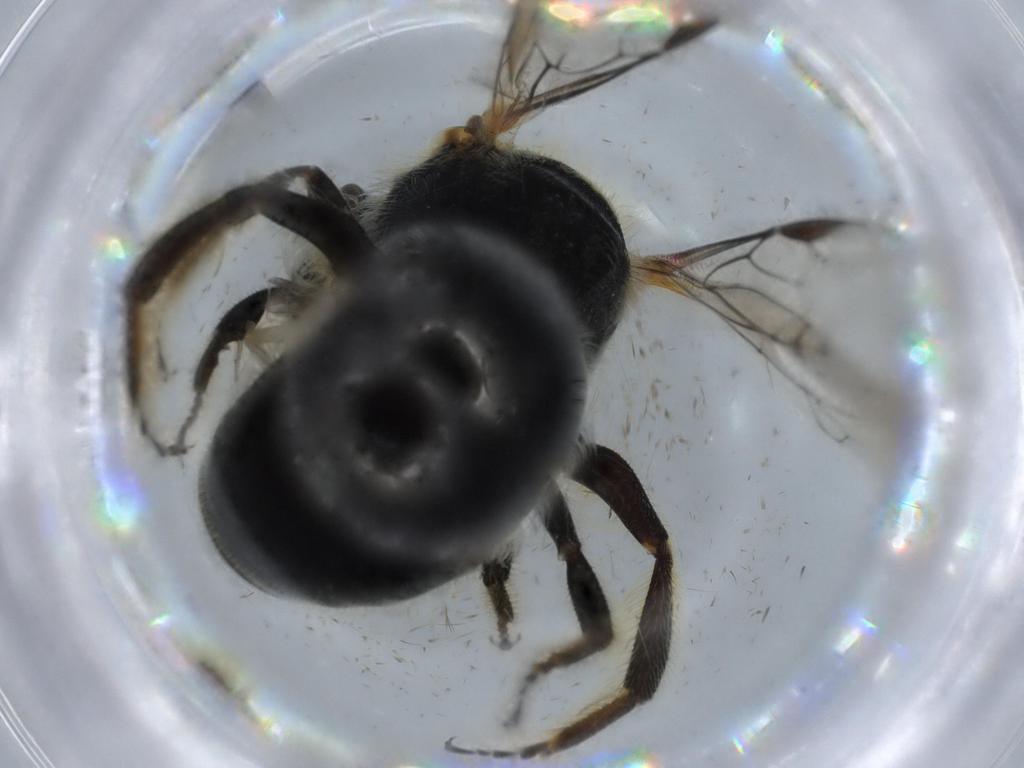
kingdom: Animalia
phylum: Arthropoda
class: Insecta
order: Hymenoptera
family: Halictidae
